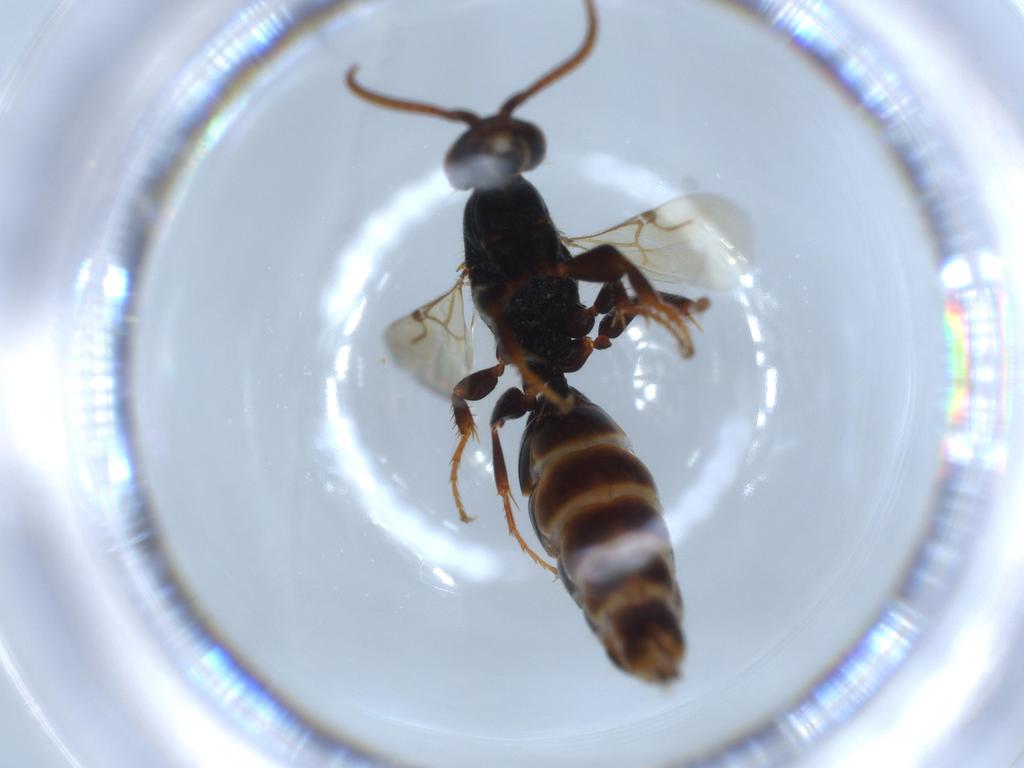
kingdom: Animalia
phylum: Arthropoda
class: Insecta
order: Hymenoptera
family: Bethylidae
